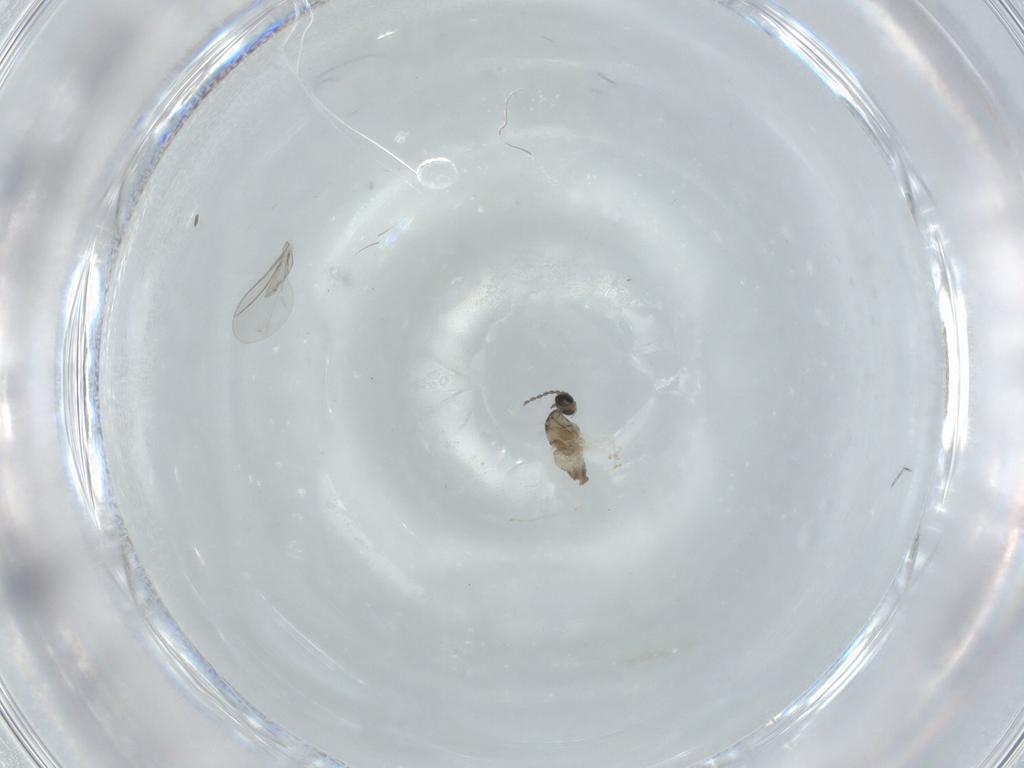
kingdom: Animalia
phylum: Arthropoda
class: Insecta
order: Diptera
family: Cecidomyiidae
